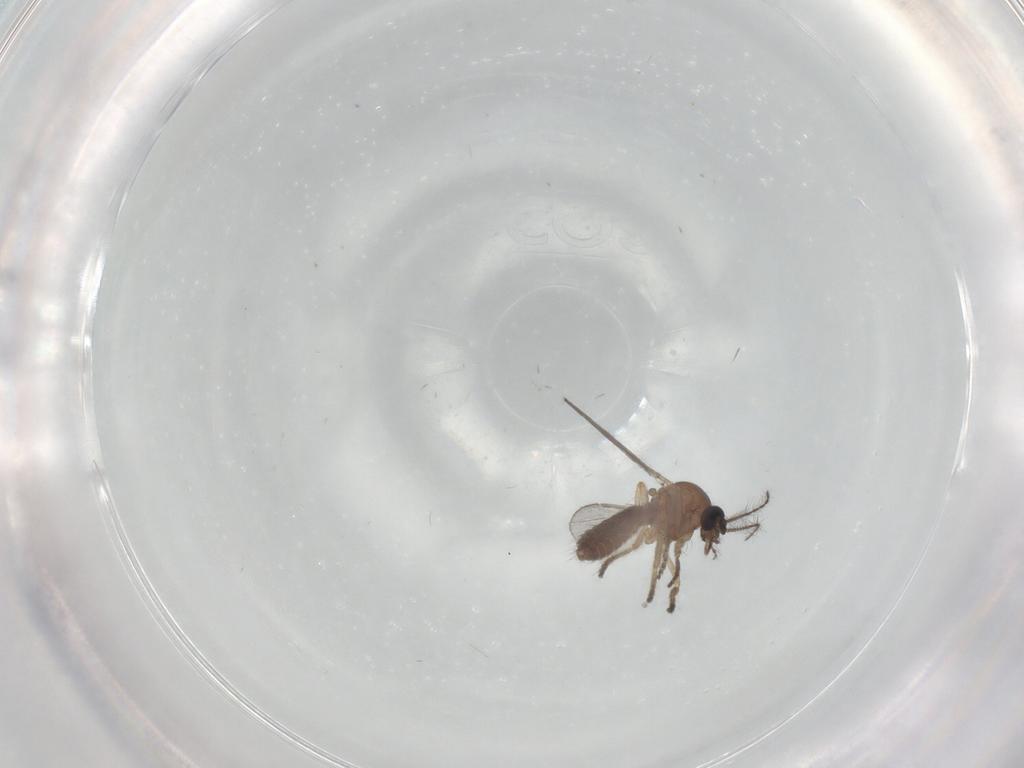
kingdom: Animalia
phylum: Arthropoda
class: Insecta
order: Diptera
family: Ceratopogonidae
